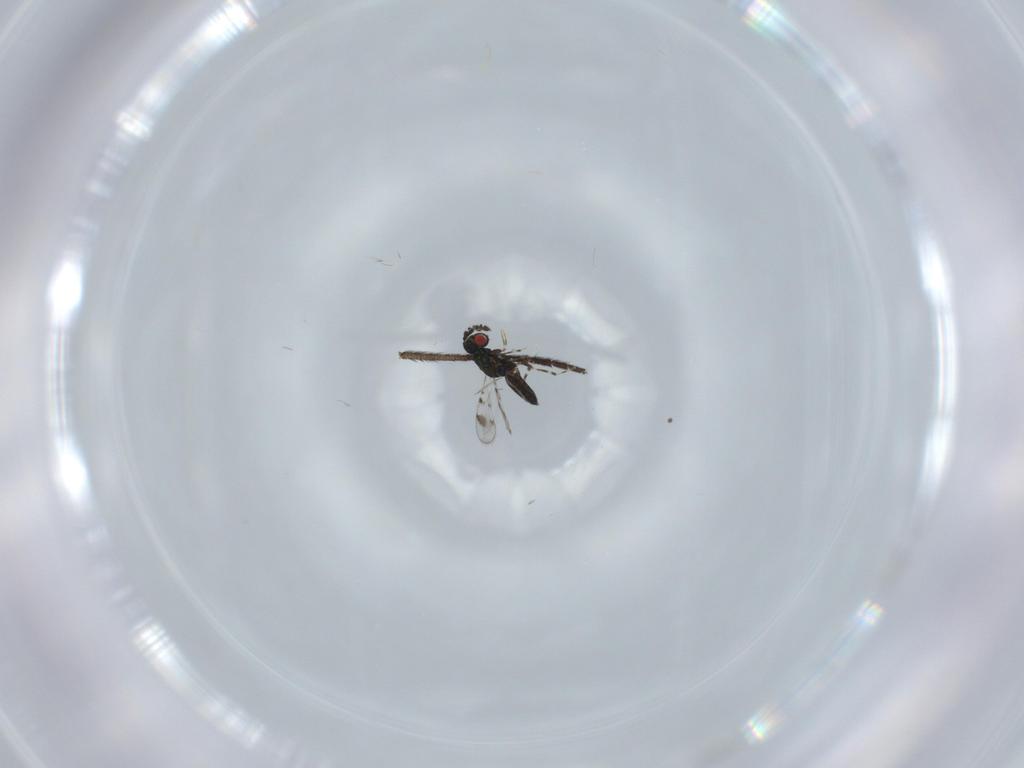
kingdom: Animalia
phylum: Arthropoda
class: Insecta
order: Hymenoptera
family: Eulophidae
